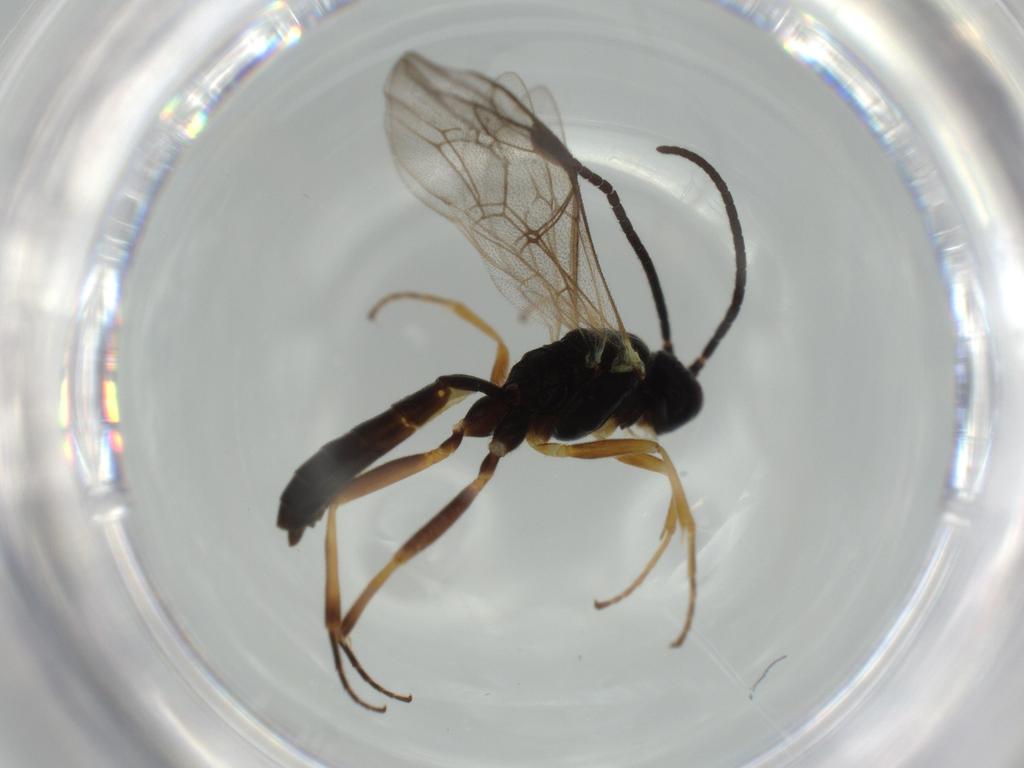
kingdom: Animalia
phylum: Arthropoda
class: Insecta
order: Hymenoptera
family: Ichneumonidae
